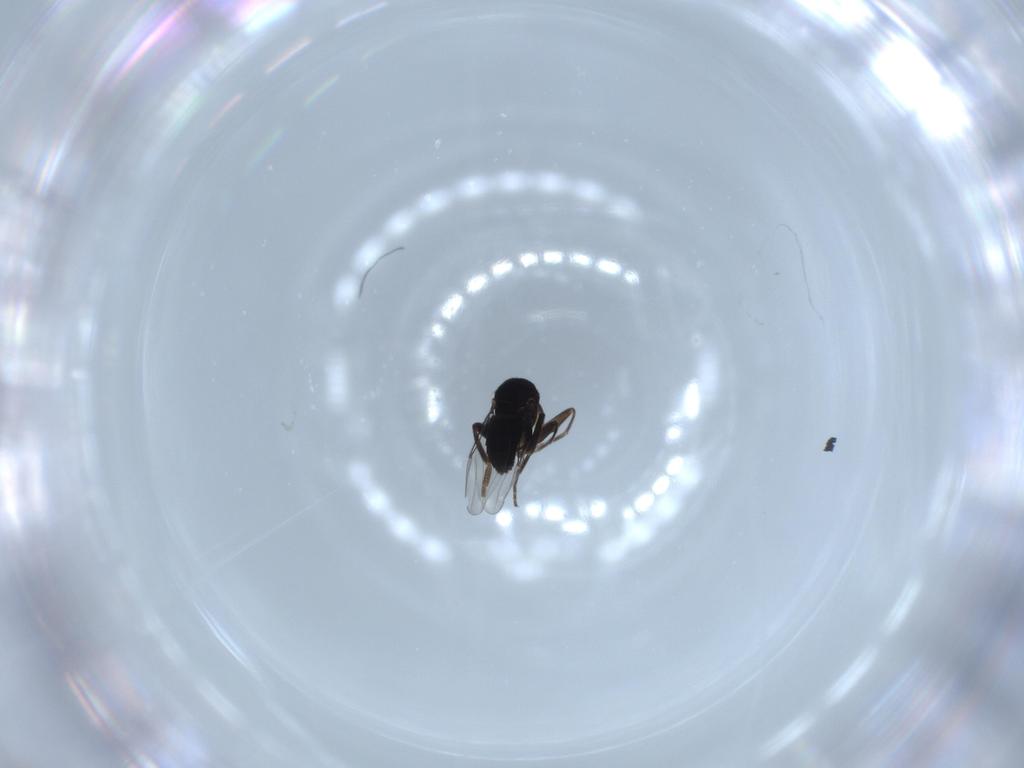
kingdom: Animalia
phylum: Arthropoda
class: Insecta
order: Diptera
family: Phoridae
